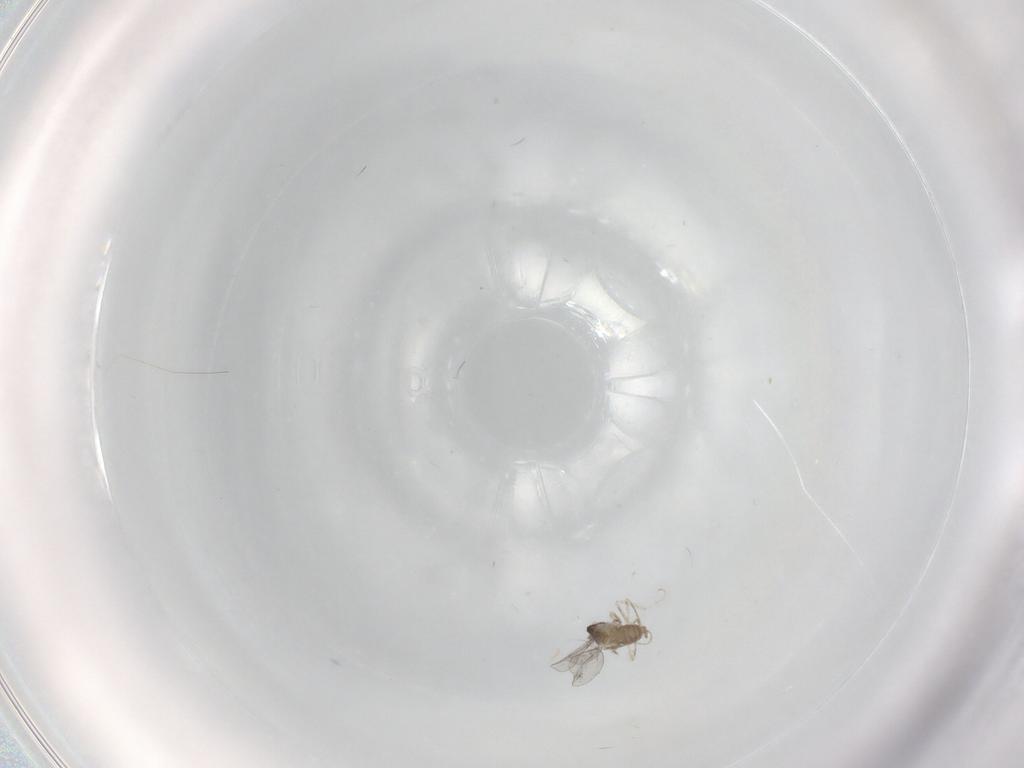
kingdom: Animalia
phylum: Arthropoda
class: Insecta
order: Diptera
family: Cecidomyiidae
